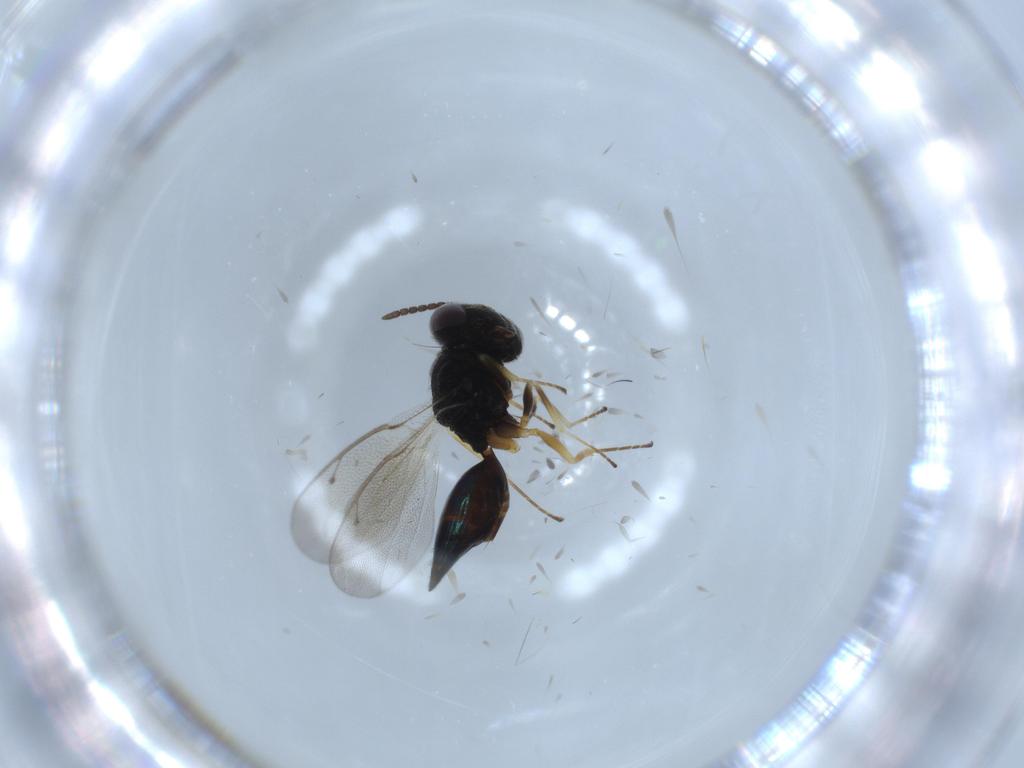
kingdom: Animalia
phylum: Arthropoda
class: Insecta
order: Hymenoptera
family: Pteromalidae
